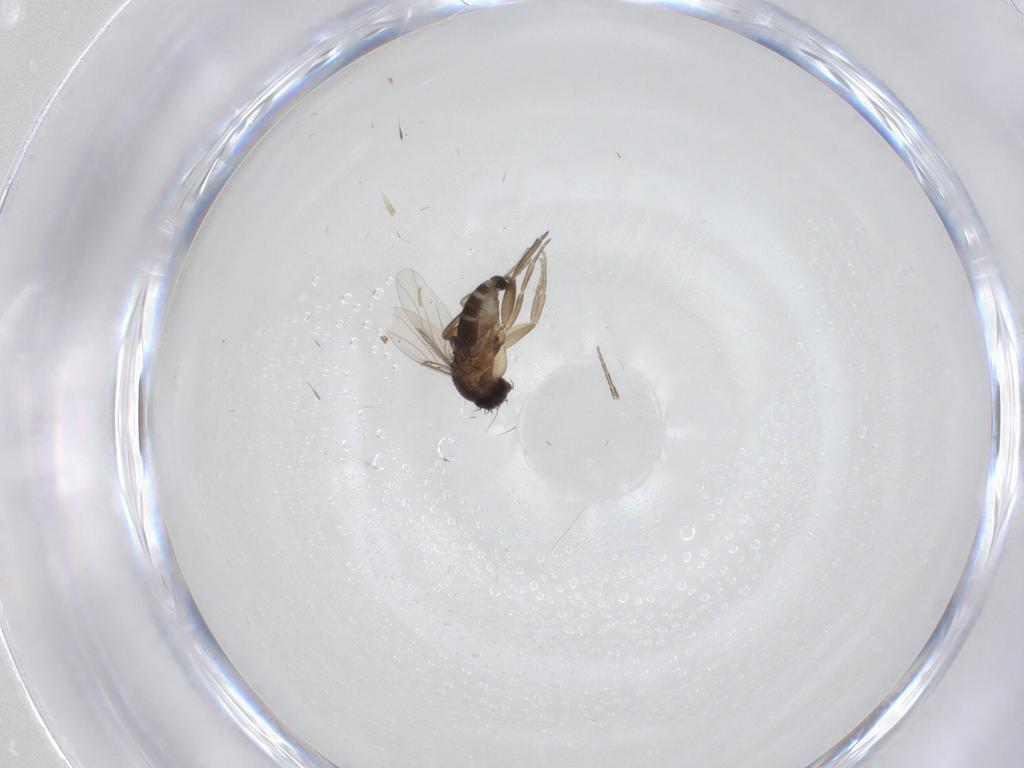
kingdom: Animalia
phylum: Arthropoda
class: Insecta
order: Diptera
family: Phoridae
